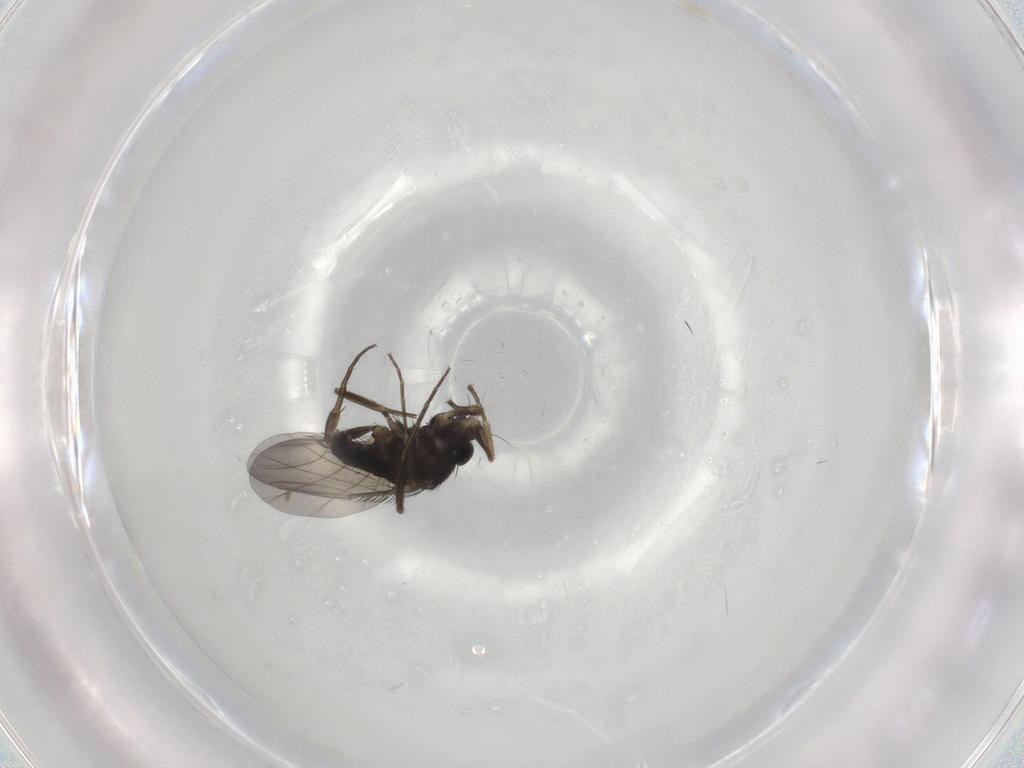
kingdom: Animalia
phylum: Arthropoda
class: Insecta
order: Diptera
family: Phoridae
